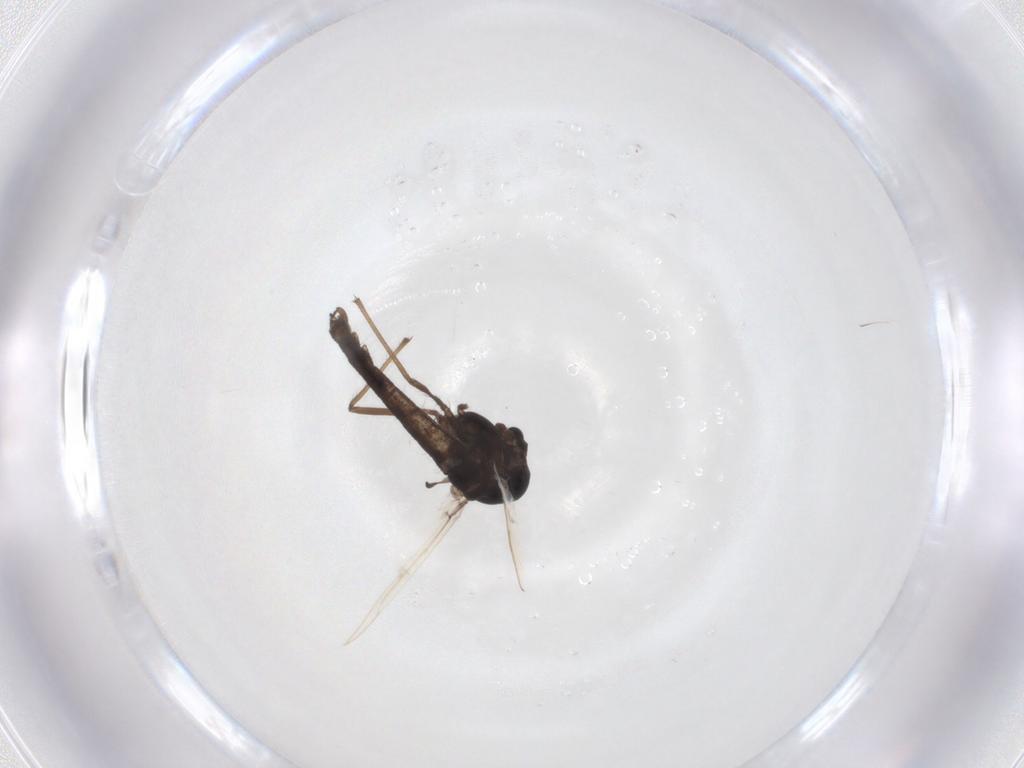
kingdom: Animalia
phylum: Arthropoda
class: Insecta
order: Diptera
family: Chironomidae
